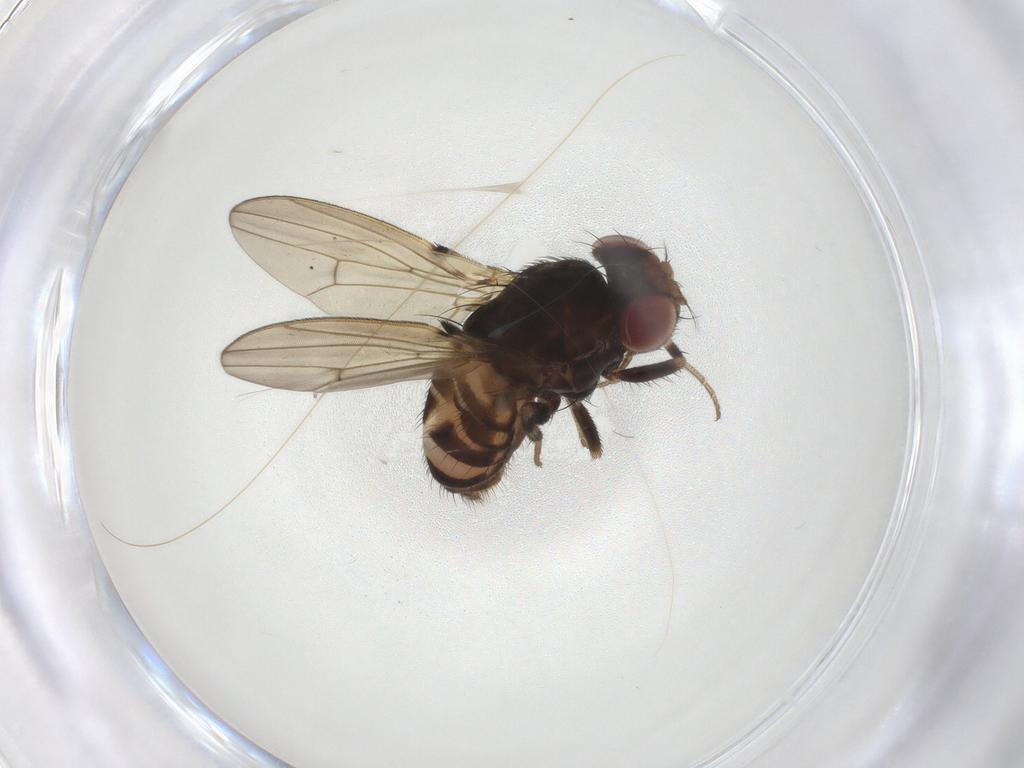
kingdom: Animalia
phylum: Arthropoda
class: Insecta
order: Diptera
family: Drosophilidae
